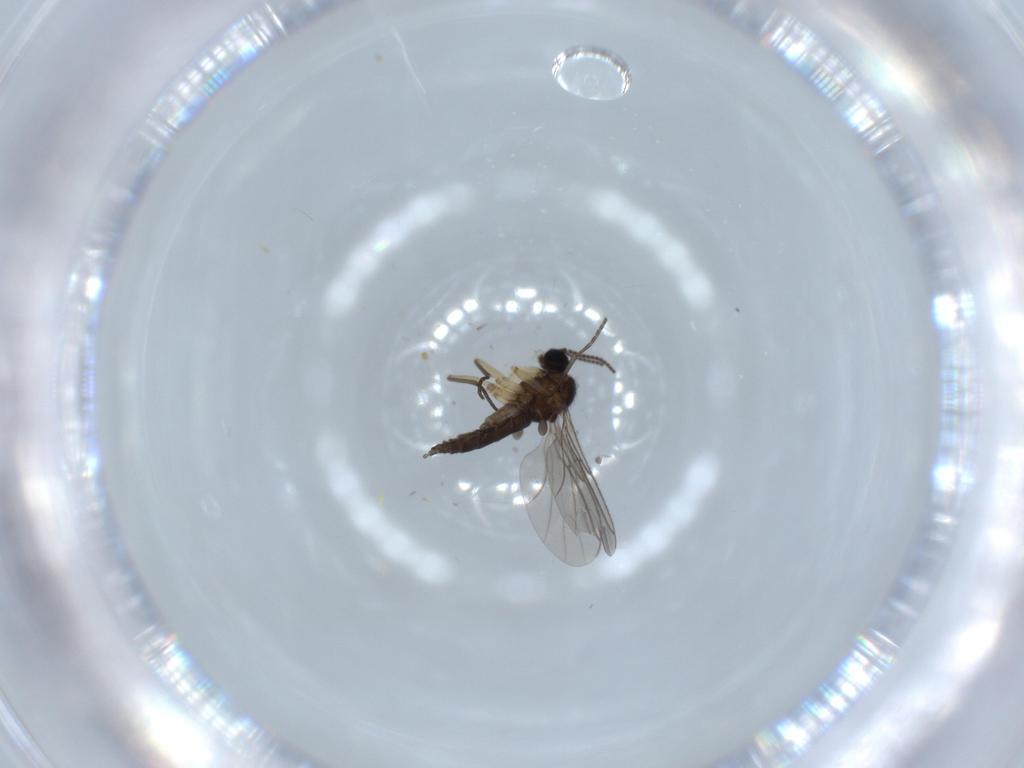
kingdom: Animalia
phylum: Arthropoda
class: Insecta
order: Diptera
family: Sciaridae
